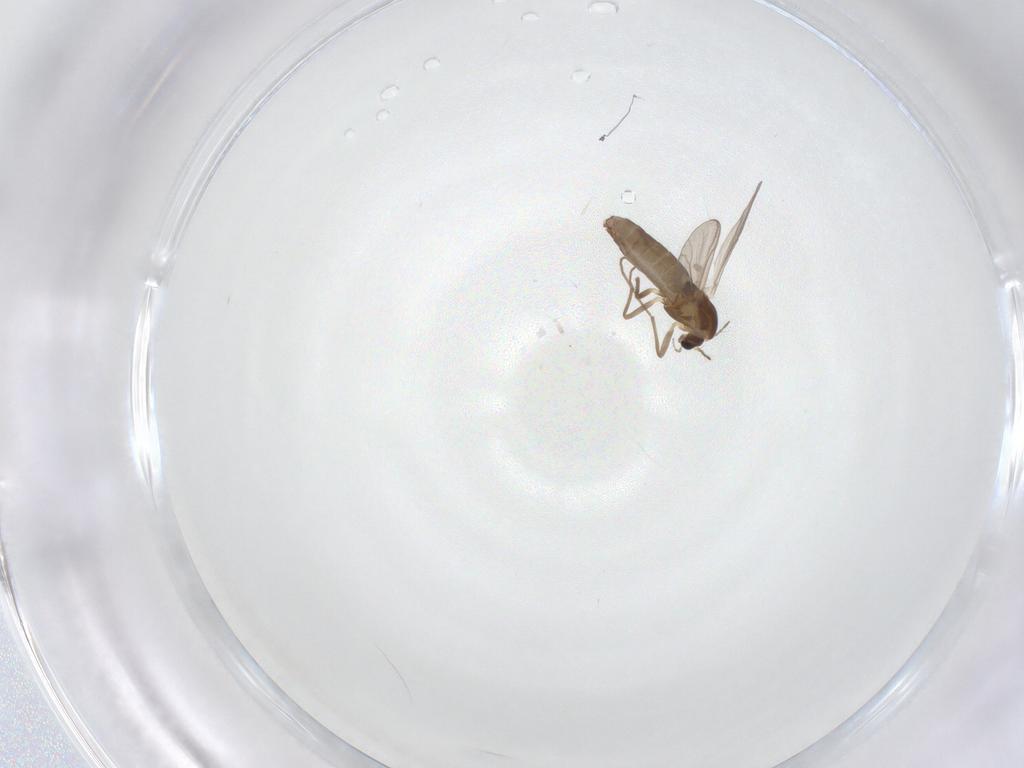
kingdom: Animalia
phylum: Arthropoda
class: Insecta
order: Diptera
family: Chironomidae
